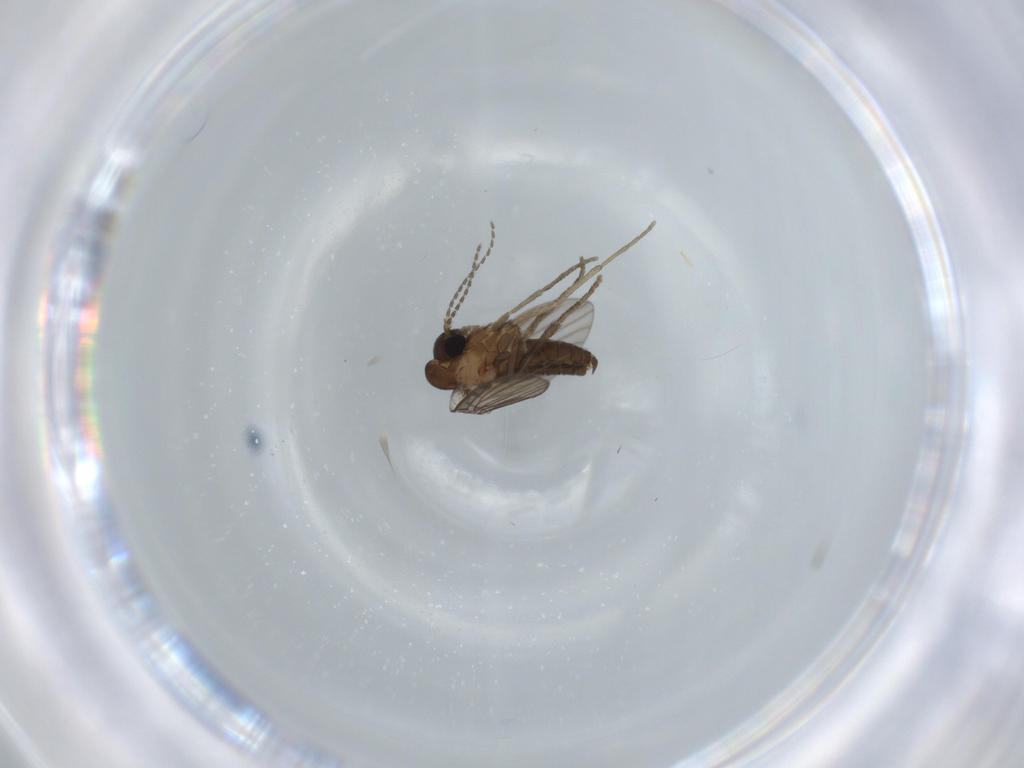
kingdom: Animalia
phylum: Arthropoda
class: Insecta
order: Diptera
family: Psychodidae
